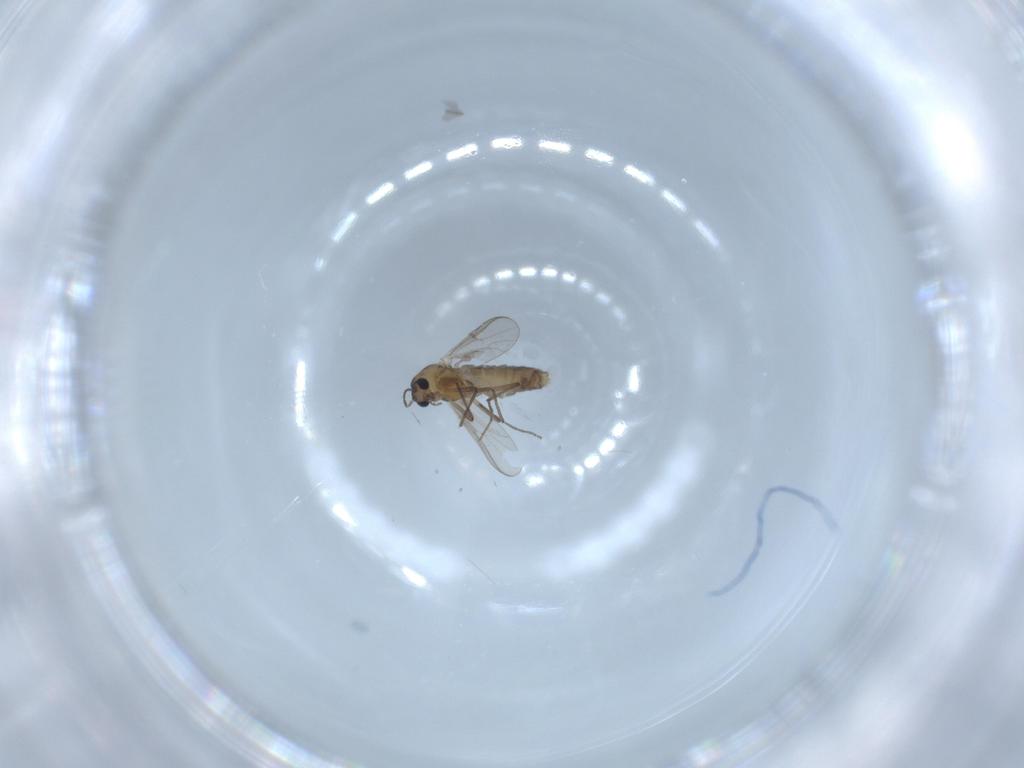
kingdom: Animalia
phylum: Arthropoda
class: Insecta
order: Diptera
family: Chironomidae
